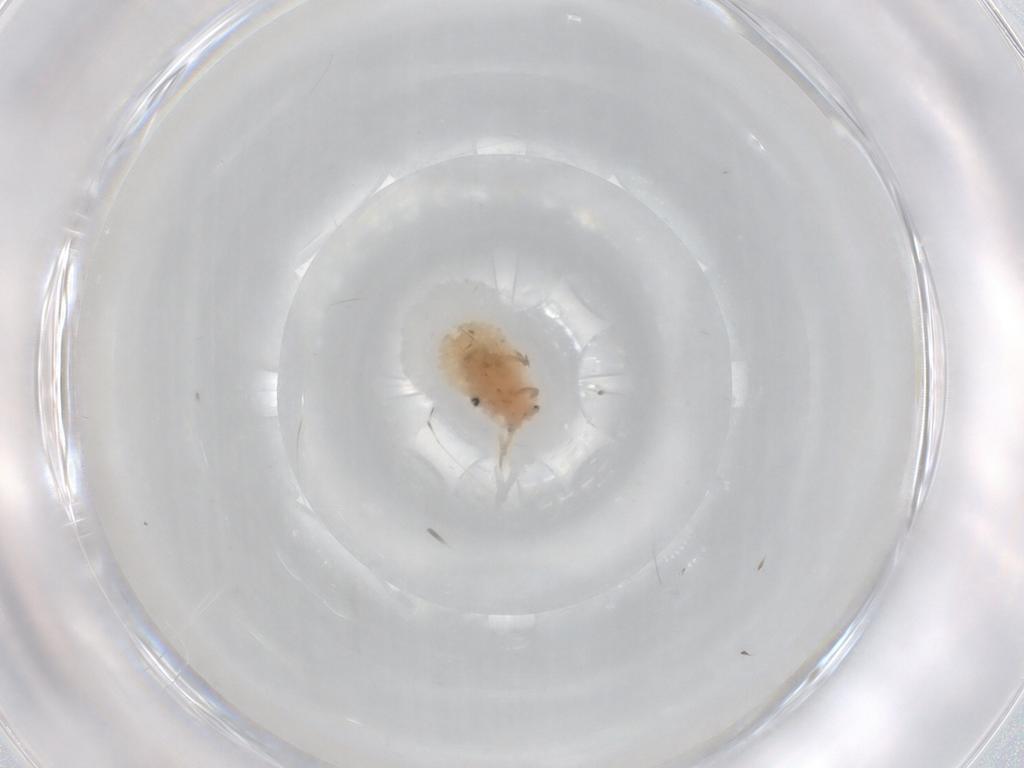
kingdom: Animalia
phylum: Arthropoda
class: Insecta
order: Hemiptera
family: Coccoidea_incertae_sedis
